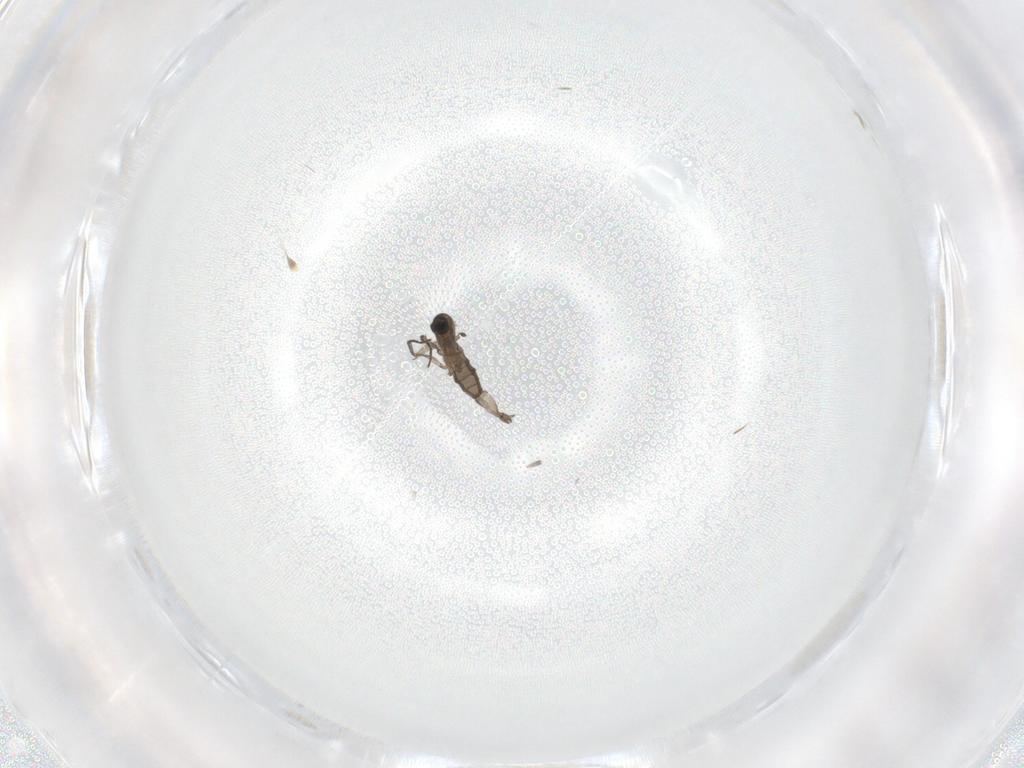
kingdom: Animalia
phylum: Arthropoda
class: Insecta
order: Diptera
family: Sciaridae
